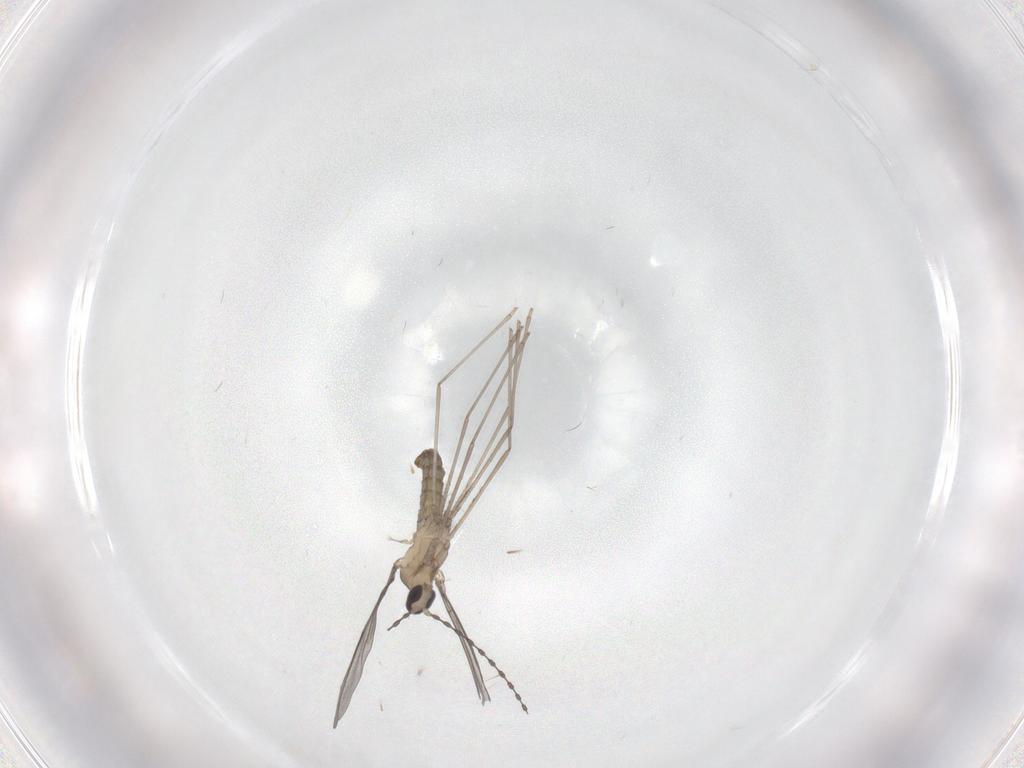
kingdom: Animalia
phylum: Arthropoda
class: Insecta
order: Diptera
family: Cecidomyiidae
